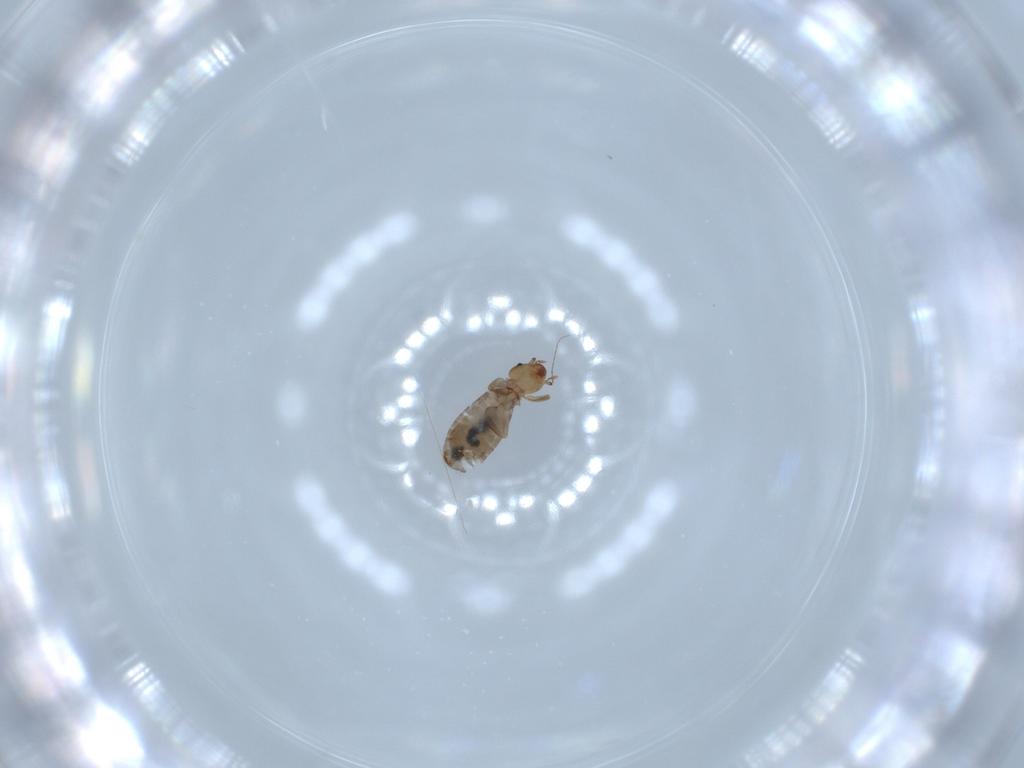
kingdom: Animalia
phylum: Arthropoda
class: Insecta
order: Psocodea
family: Liposcelididae
